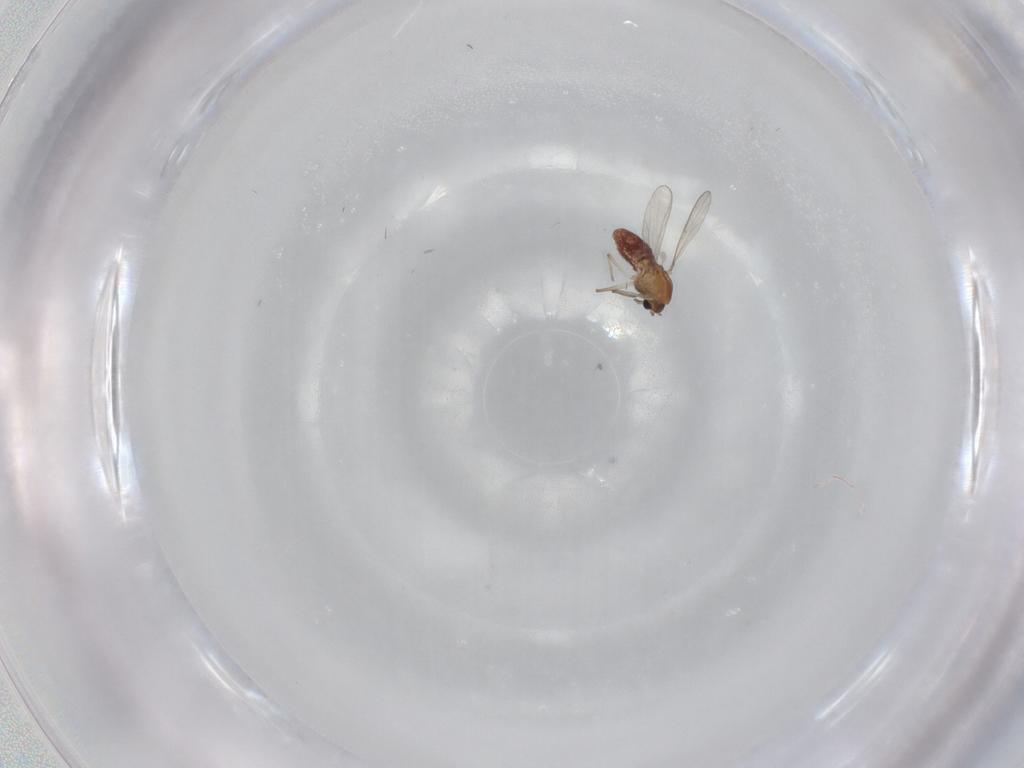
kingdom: Animalia
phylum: Arthropoda
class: Insecta
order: Diptera
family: Chironomidae
